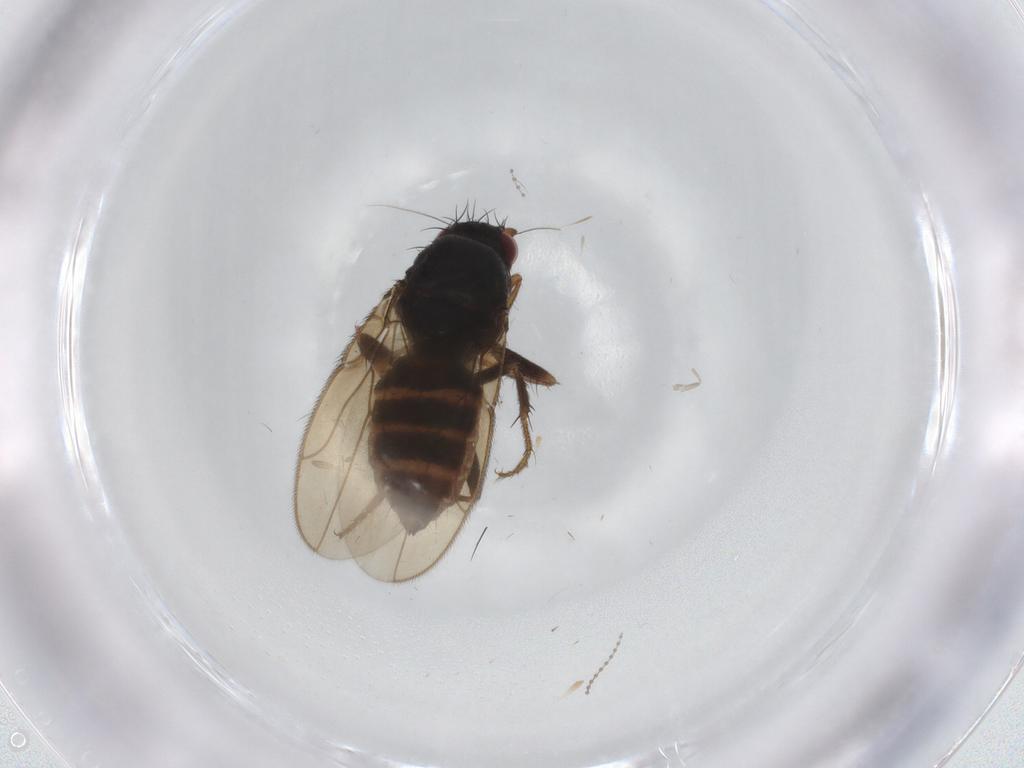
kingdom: Animalia
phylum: Arthropoda
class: Insecta
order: Diptera
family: Sphaeroceridae
